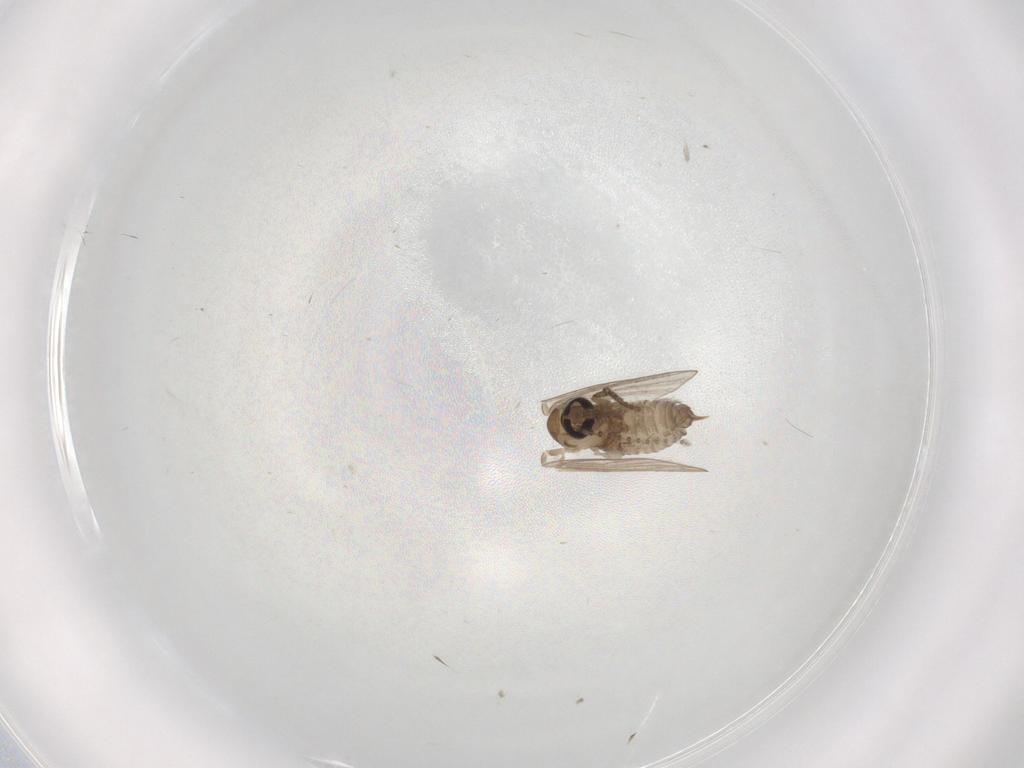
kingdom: Animalia
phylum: Arthropoda
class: Insecta
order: Diptera
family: Psychodidae
